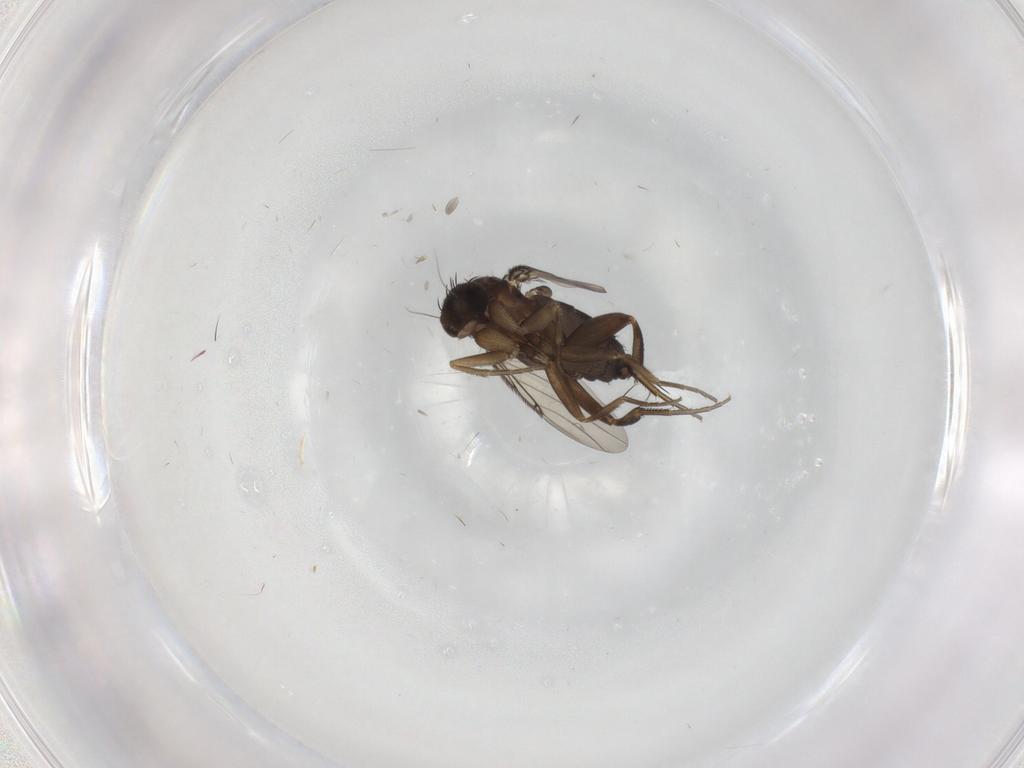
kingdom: Animalia
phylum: Arthropoda
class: Insecta
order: Diptera
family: Phoridae
